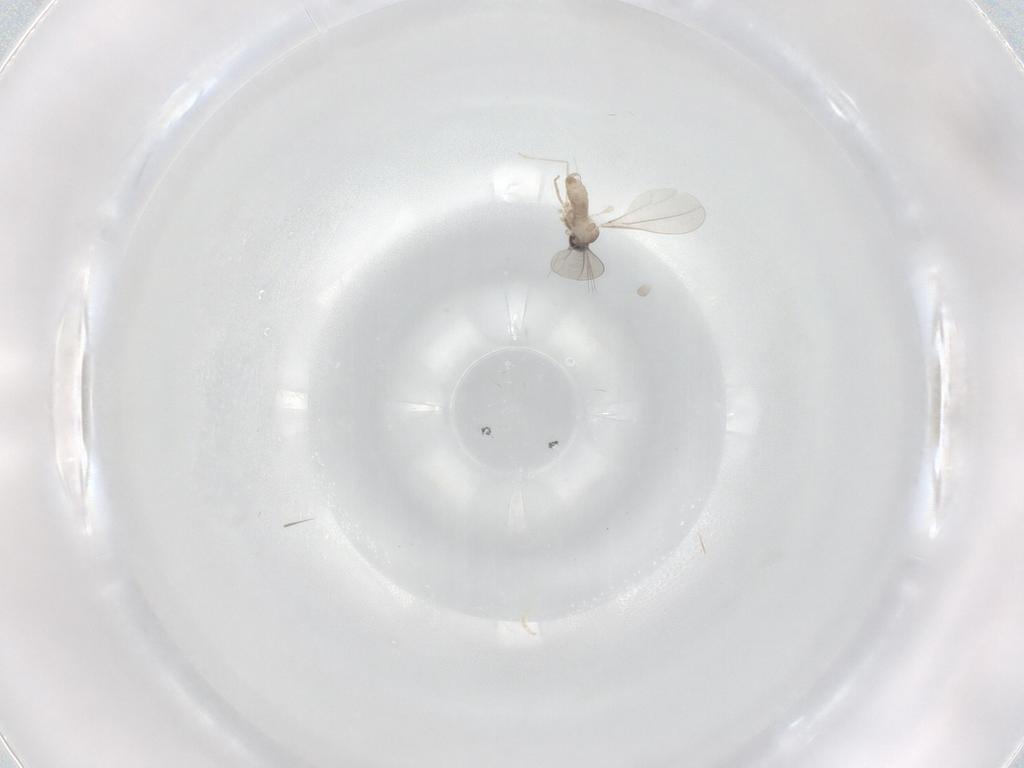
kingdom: Animalia
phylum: Arthropoda
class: Insecta
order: Diptera
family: Cecidomyiidae
